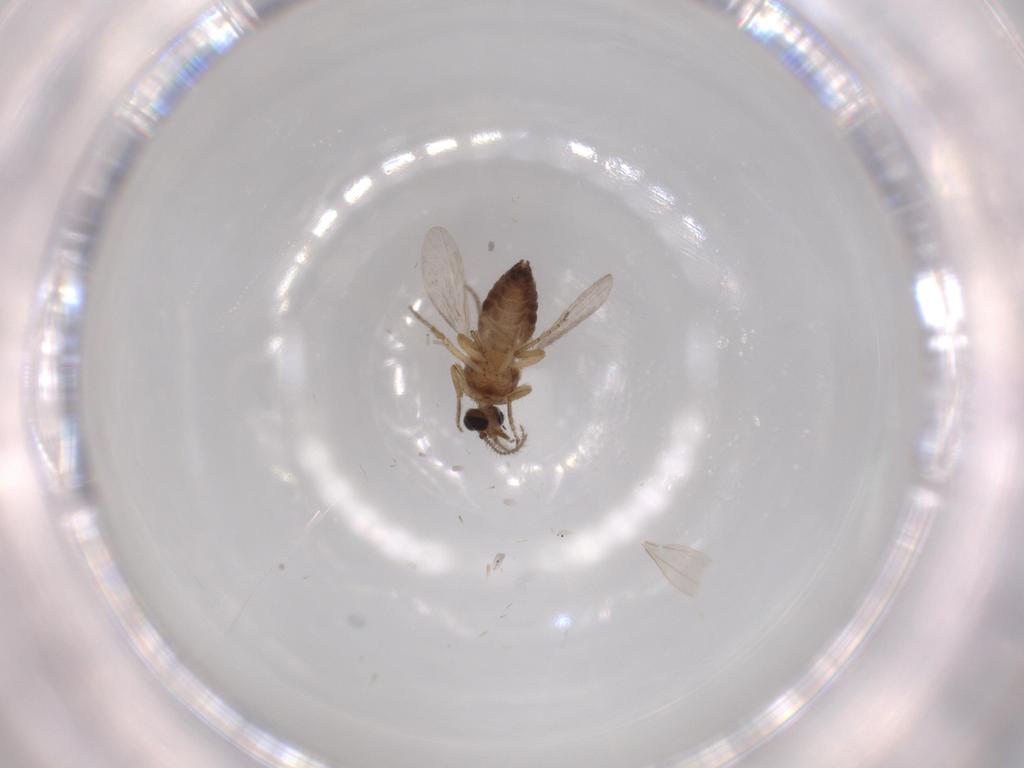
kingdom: Animalia
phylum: Arthropoda
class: Insecta
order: Diptera
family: Ceratopogonidae
